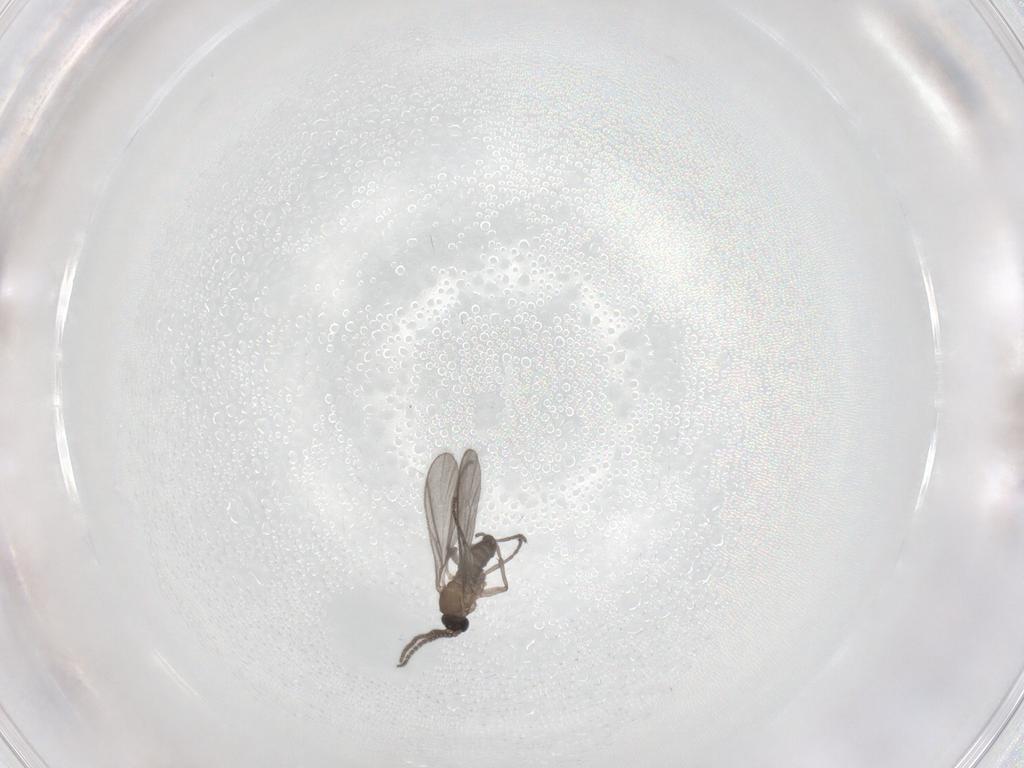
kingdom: Animalia
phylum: Arthropoda
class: Insecta
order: Diptera
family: Sciaridae
